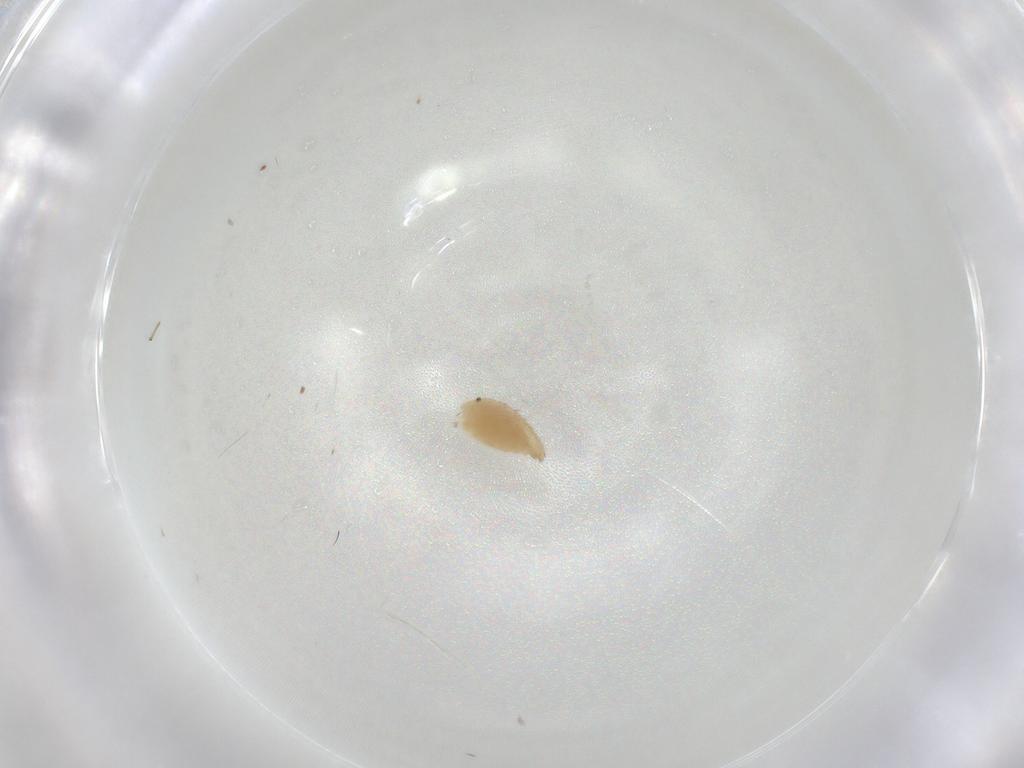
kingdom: Animalia
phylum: Arthropoda
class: Insecta
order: Diptera
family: Chironomidae
